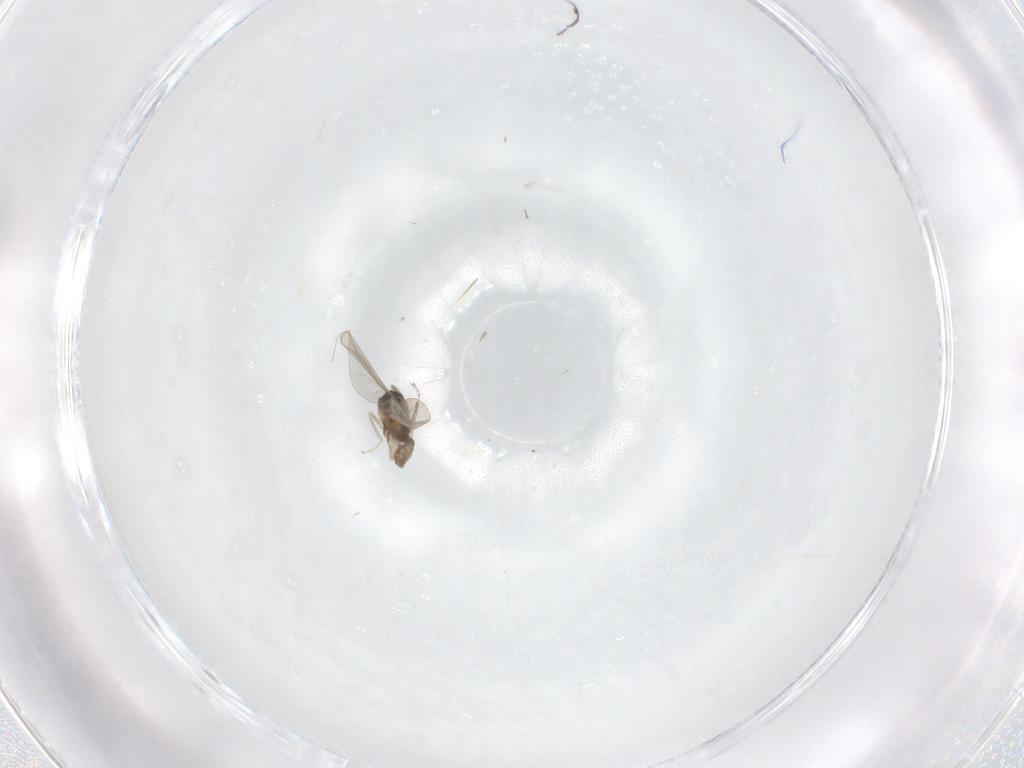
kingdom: Animalia
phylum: Arthropoda
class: Insecta
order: Diptera
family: Cecidomyiidae
